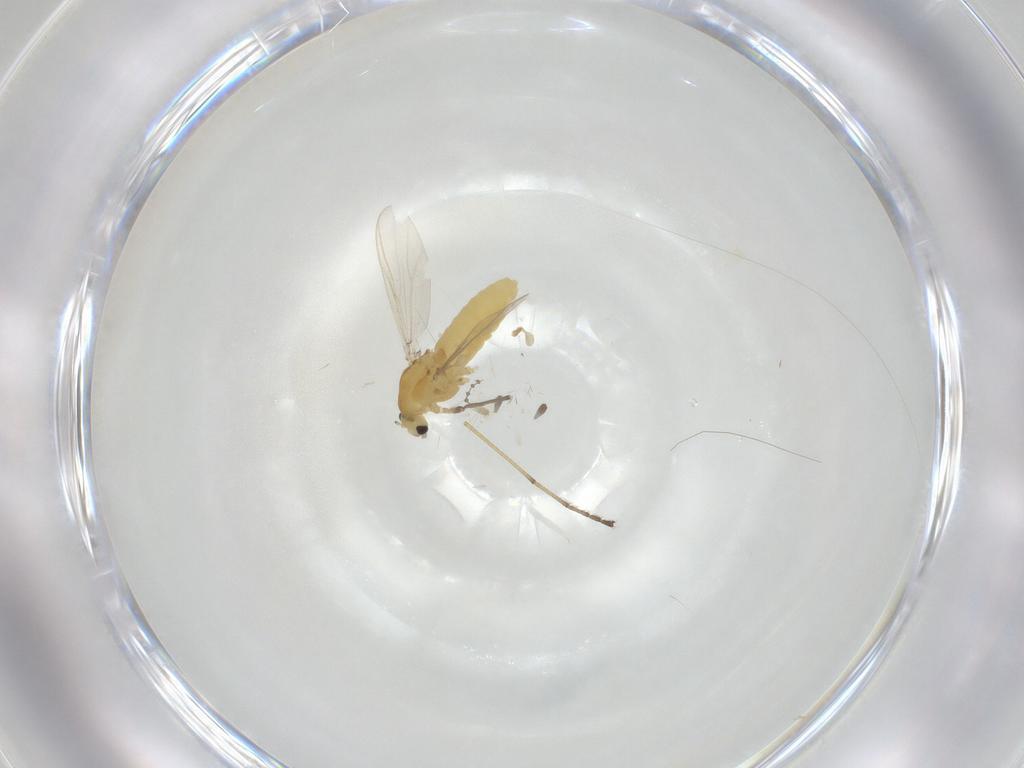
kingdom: Animalia
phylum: Arthropoda
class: Insecta
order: Diptera
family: Chironomidae
